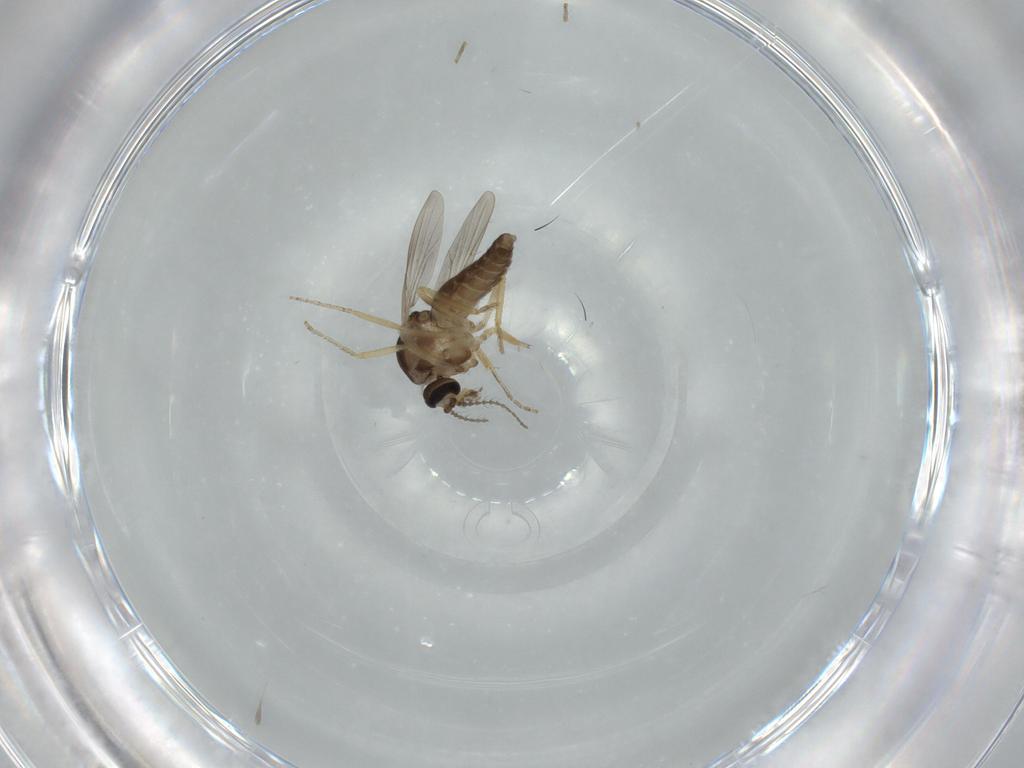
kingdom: Animalia
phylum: Arthropoda
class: Insecta
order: Diptera
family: Ceratopogonidae
